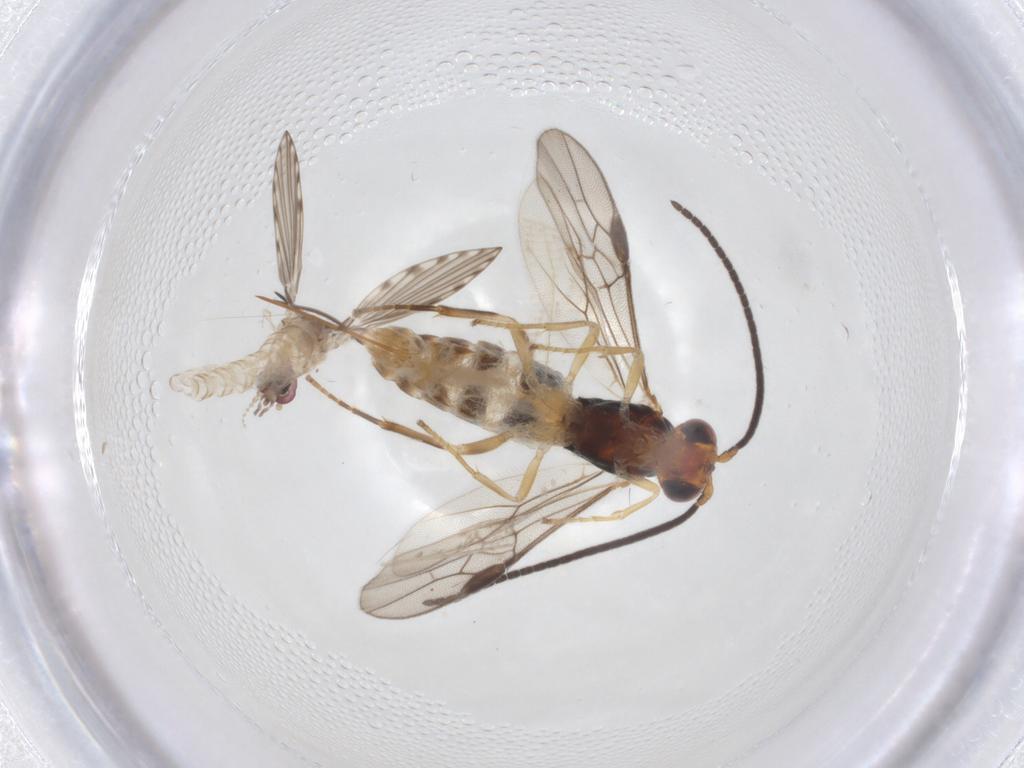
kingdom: Animalia
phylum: Arthropoda
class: Insecta
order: Diptera
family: Psychodidae
